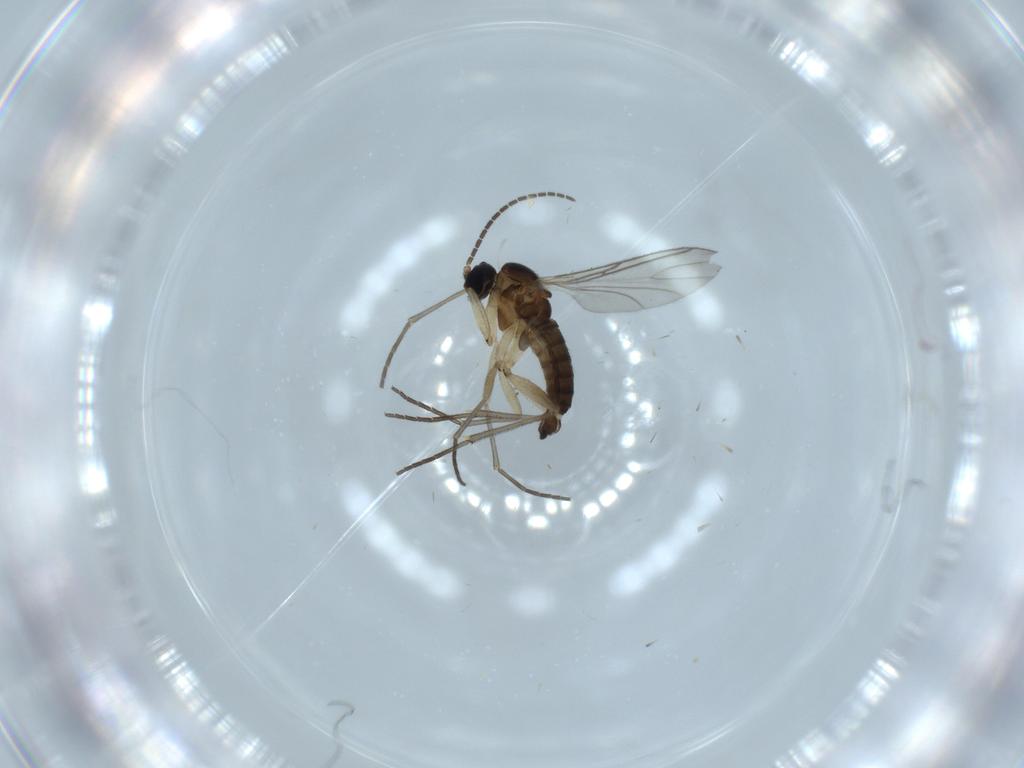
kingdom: Animalia
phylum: Arthropoda
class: Insecta
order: Diptera
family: Sciaridae
